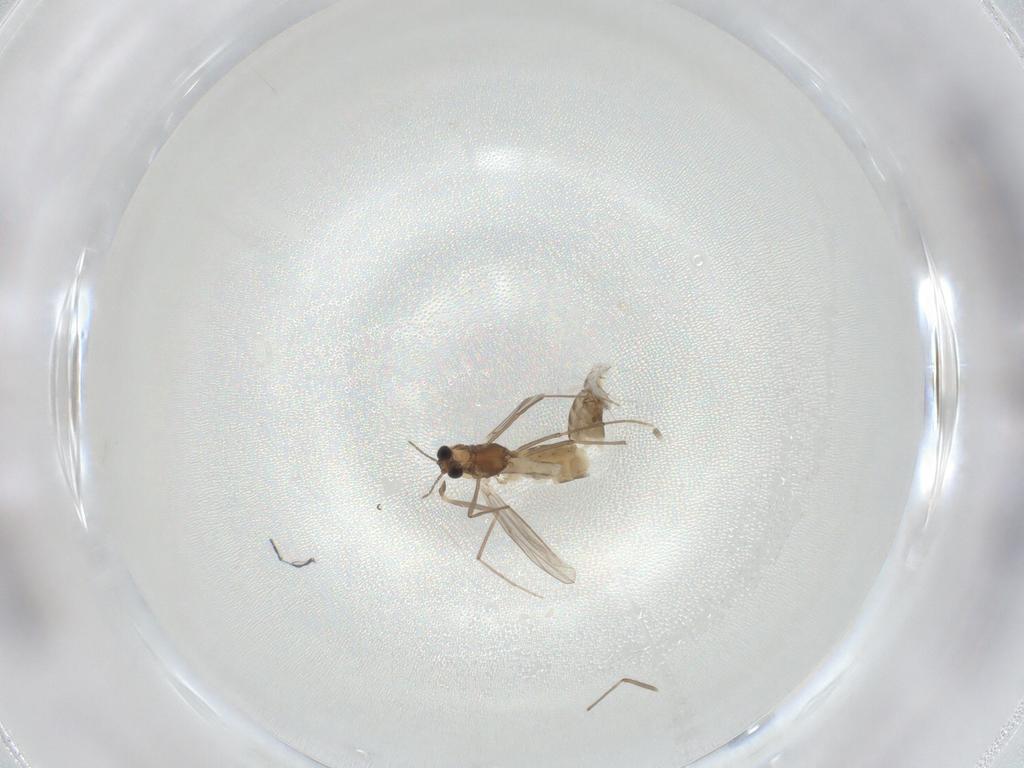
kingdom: Animalia
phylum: Arthropoda
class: Insecta
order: Diptera
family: Chironomidae
